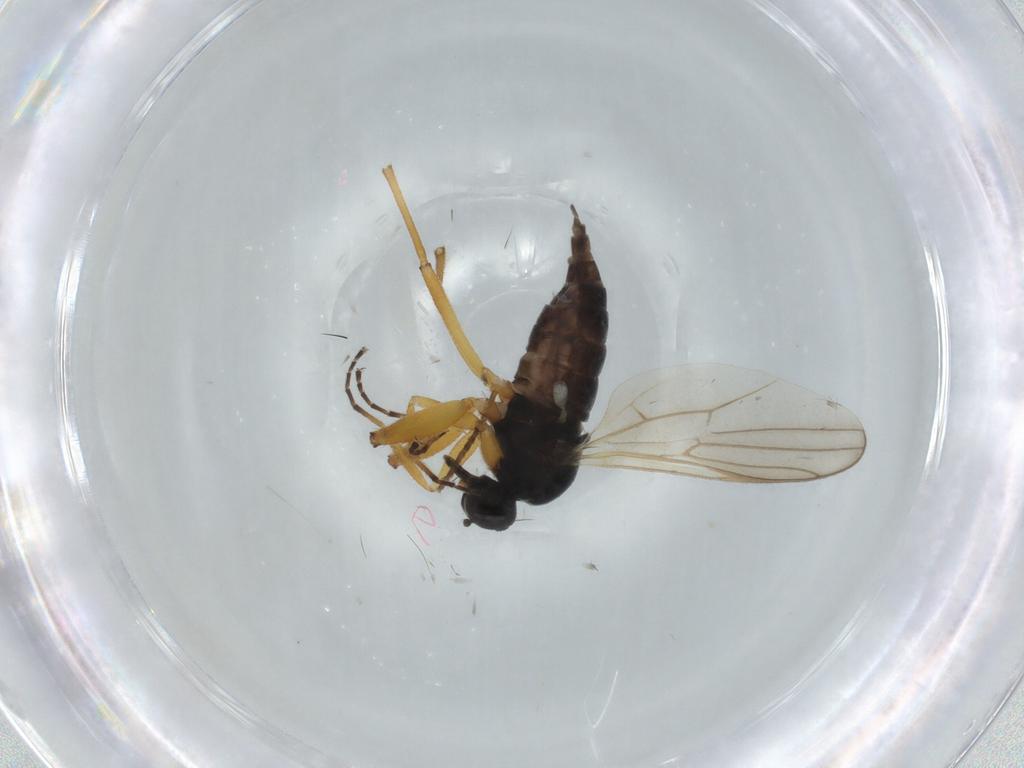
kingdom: Animalia
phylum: Arthropoda
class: Insecta
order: Diptera
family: Hybotidae
